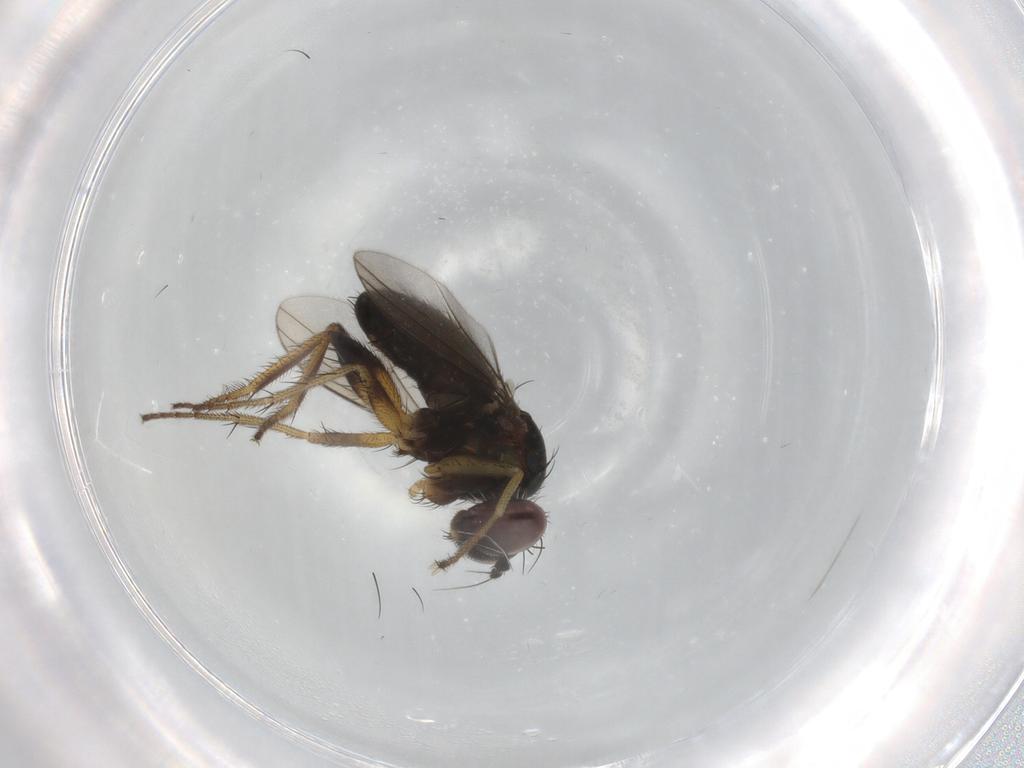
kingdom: Animalia
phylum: Arthropoda
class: Insecta
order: Diptera
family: Dolichopodidae
